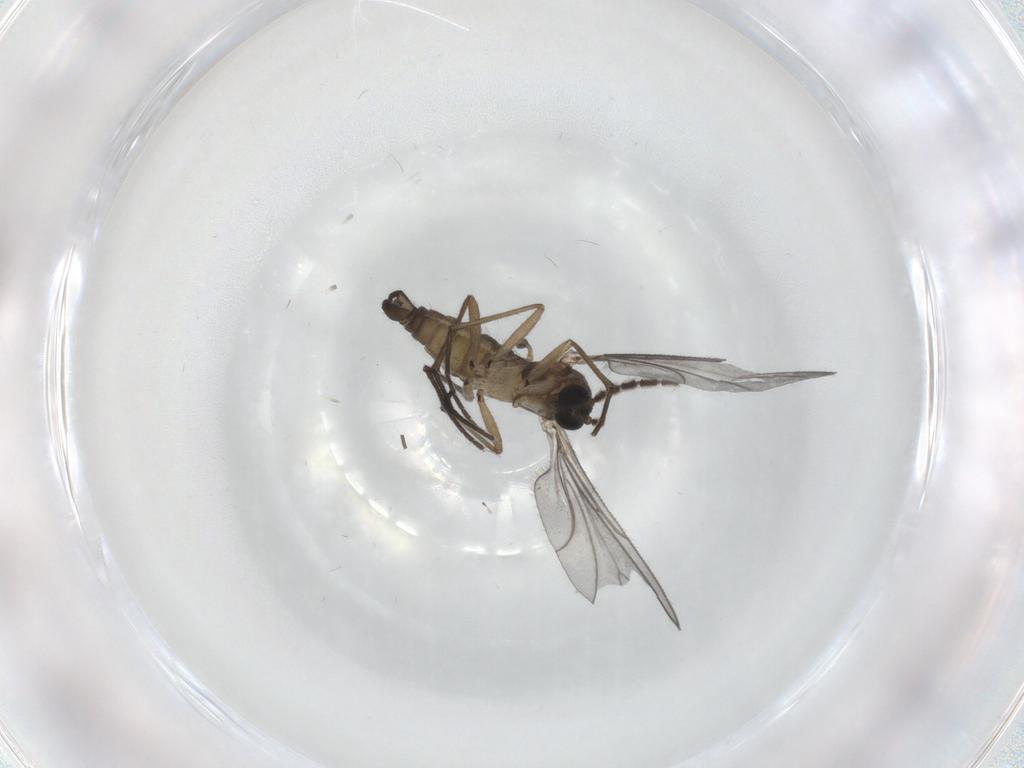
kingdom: Animalia
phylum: Arthropoda
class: Insecta
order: Diptera
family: Sciaridae
